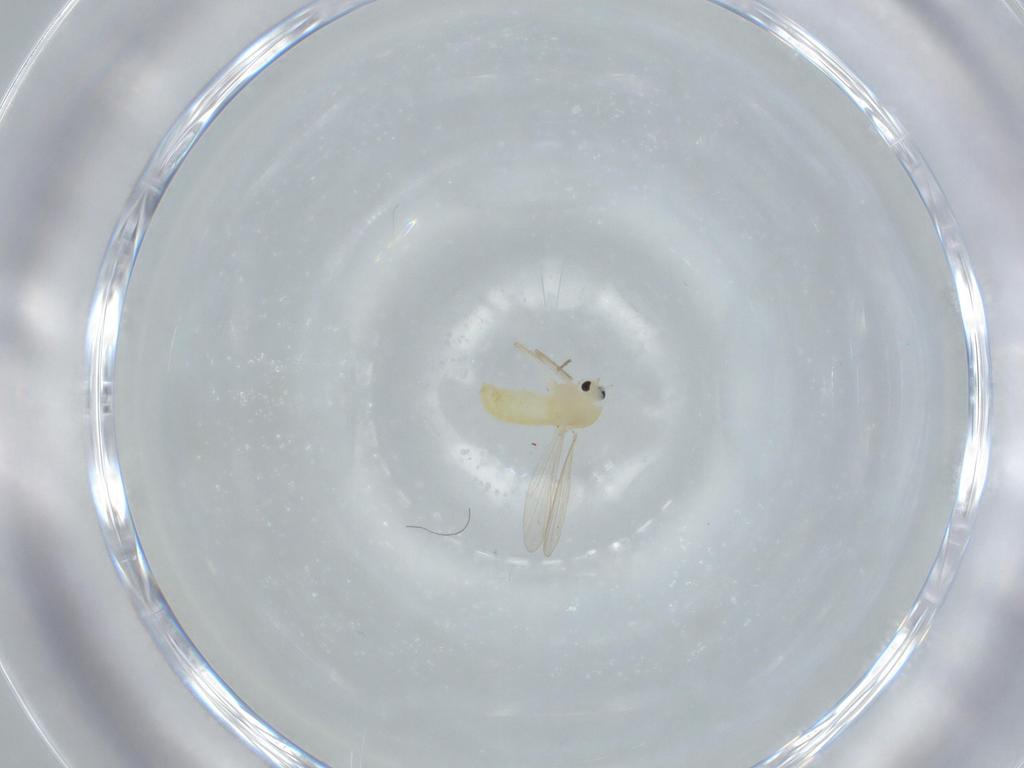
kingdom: Animalia
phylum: Arthropoda
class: Insecta
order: Diptera
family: Chironomidae
